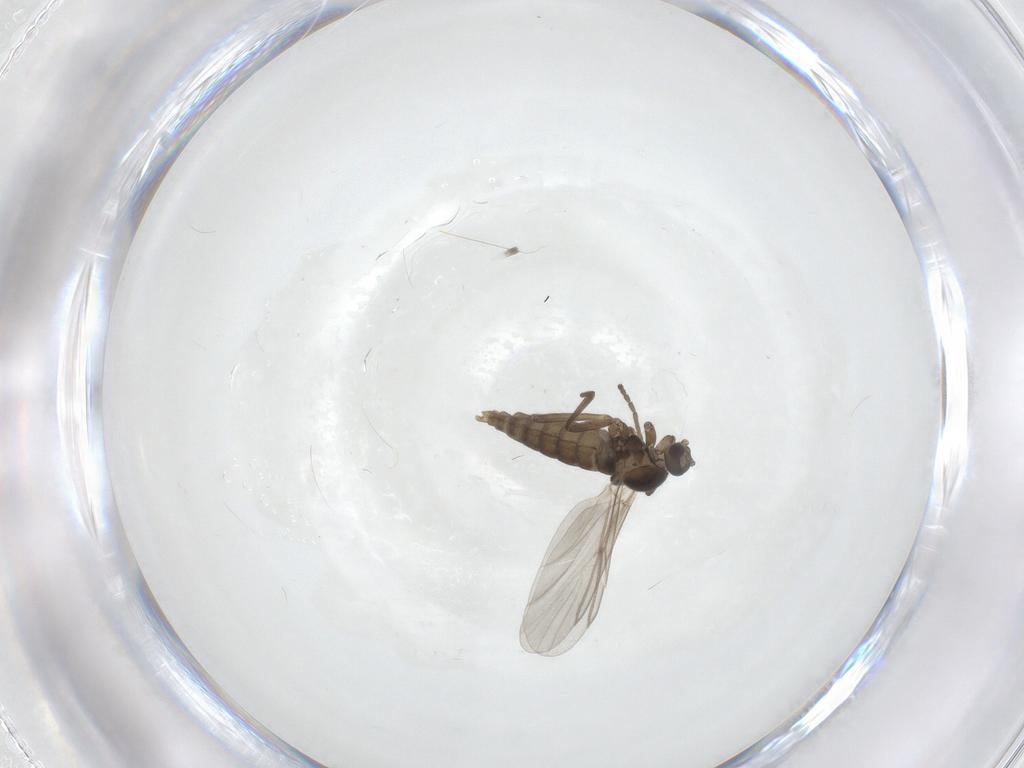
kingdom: Animalia
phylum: Arthropoda
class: Insecta
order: Diptera
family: Cecidomyiidae
